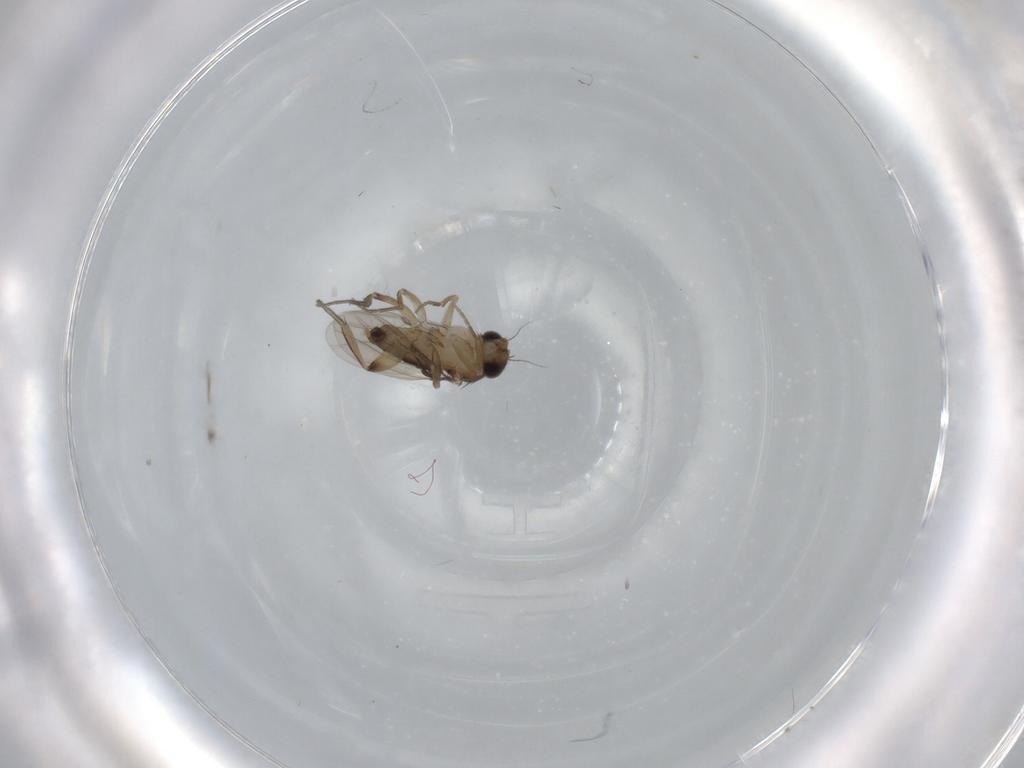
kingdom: Animalia
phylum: Arthropoda
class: Insecta
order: Diptera
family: Phoridae
